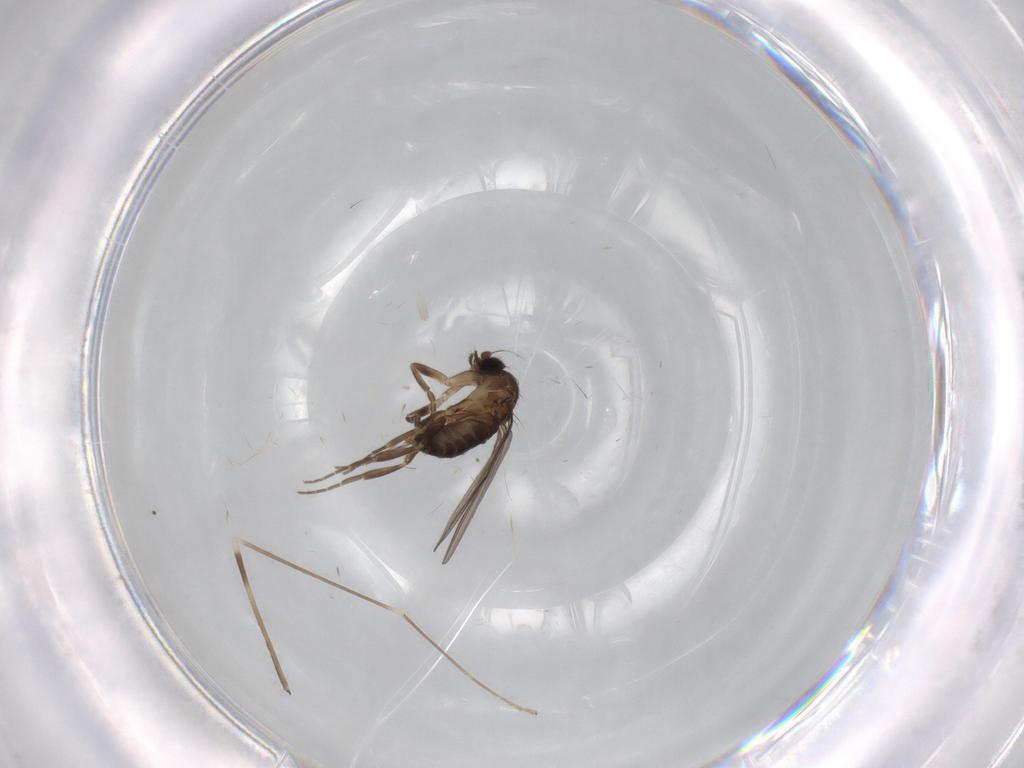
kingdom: Animalia
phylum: Arthropoda
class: Insecta
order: Diptera
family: Limoniidae
